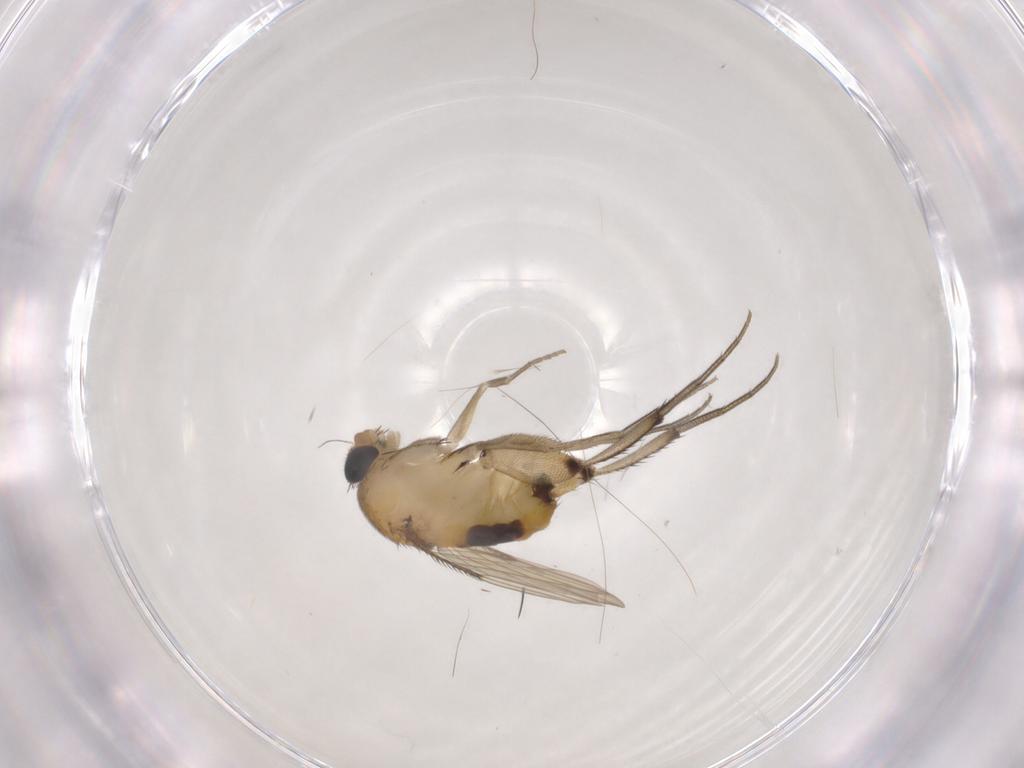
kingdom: Animalia
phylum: Arthropoda
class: Insecta
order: Diptera
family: Phoridae
